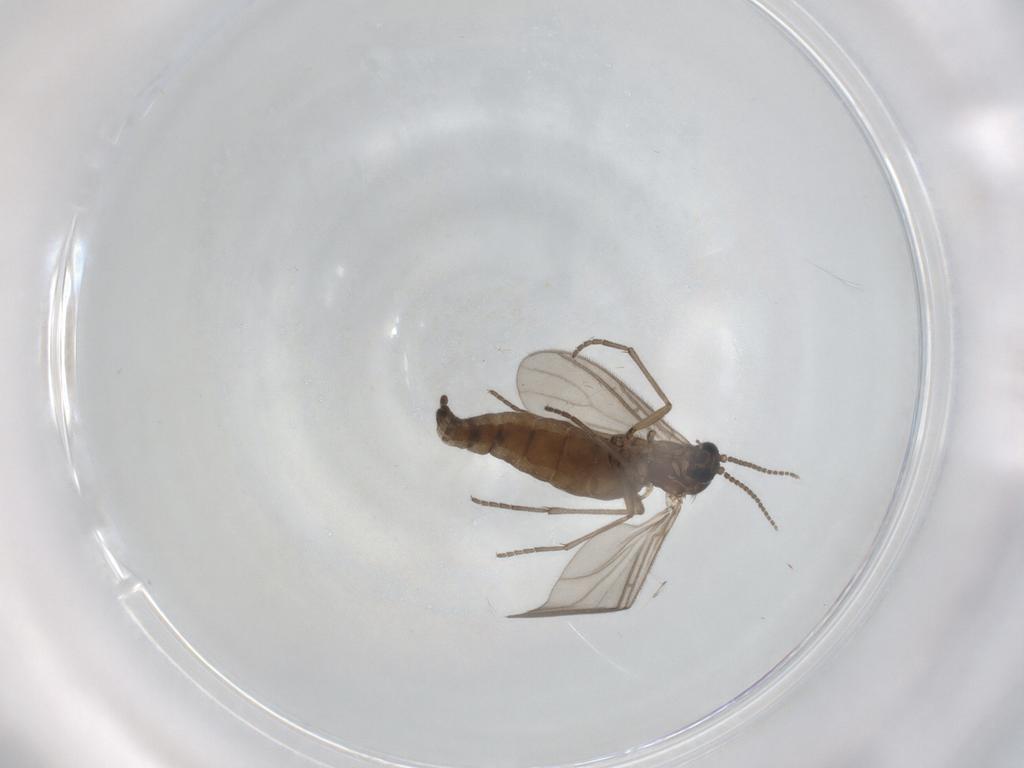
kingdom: Animalia
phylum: Arthropoda
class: Insecta
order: Diptera
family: Sciaridae
